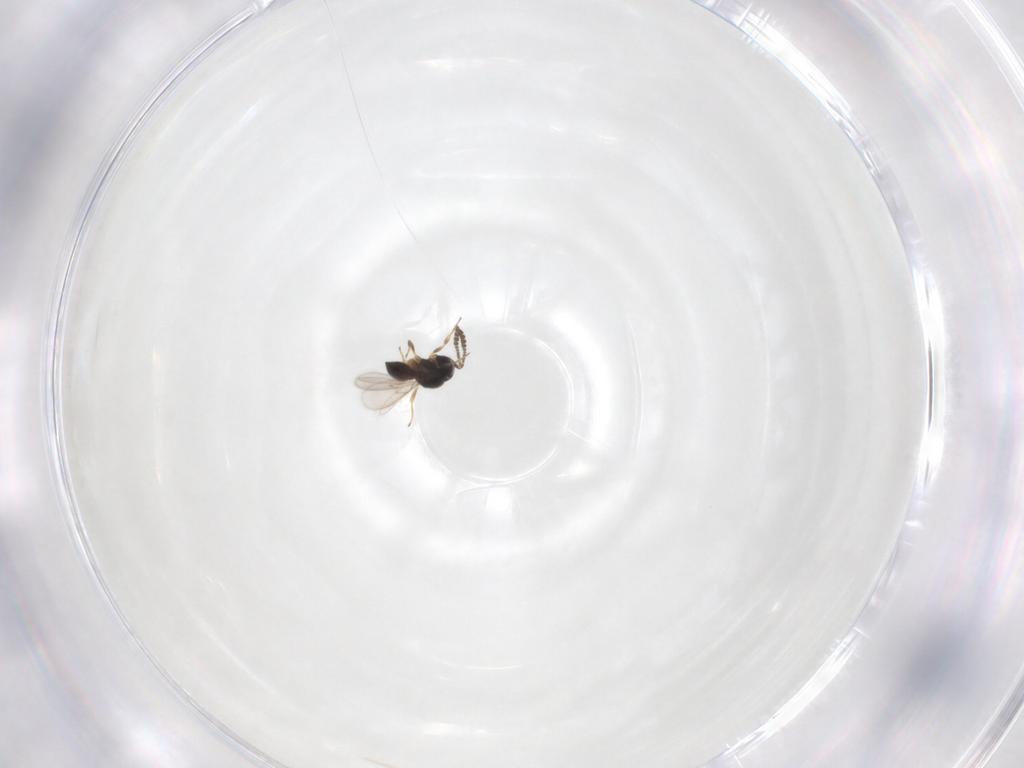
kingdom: Animalia
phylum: Arthropoda
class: Insecta
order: Hymenoptera
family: Scelionidae
